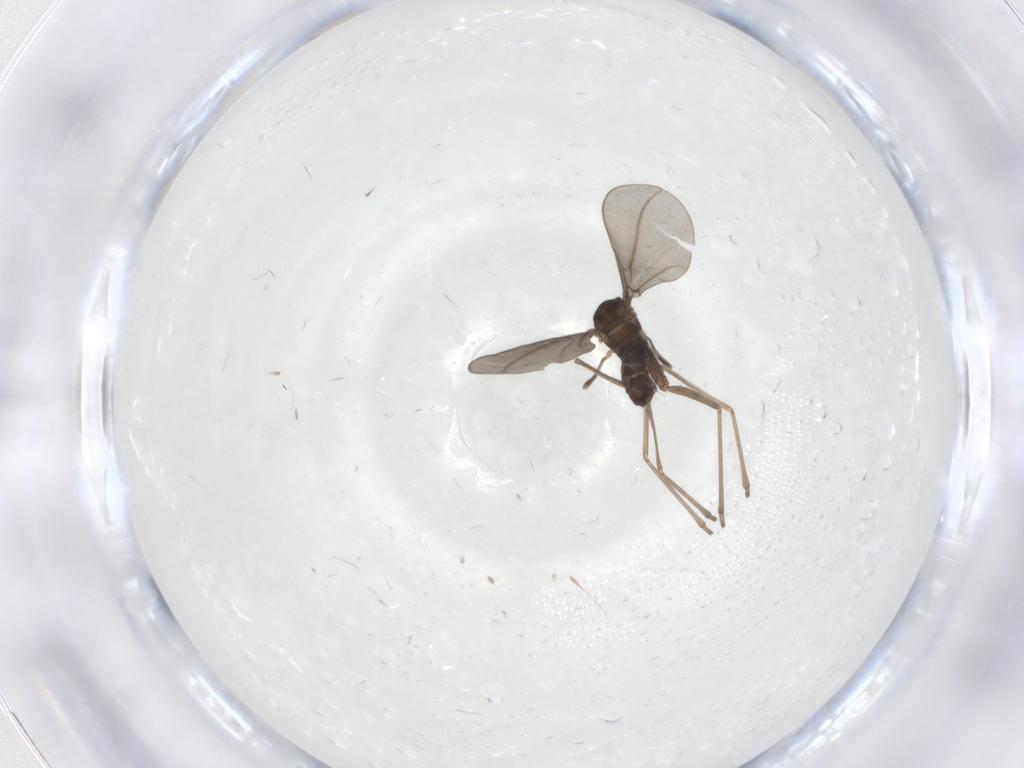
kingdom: Animalia
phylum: Arthropoda
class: Insecta
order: Diptera
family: Cecidomyiidae
